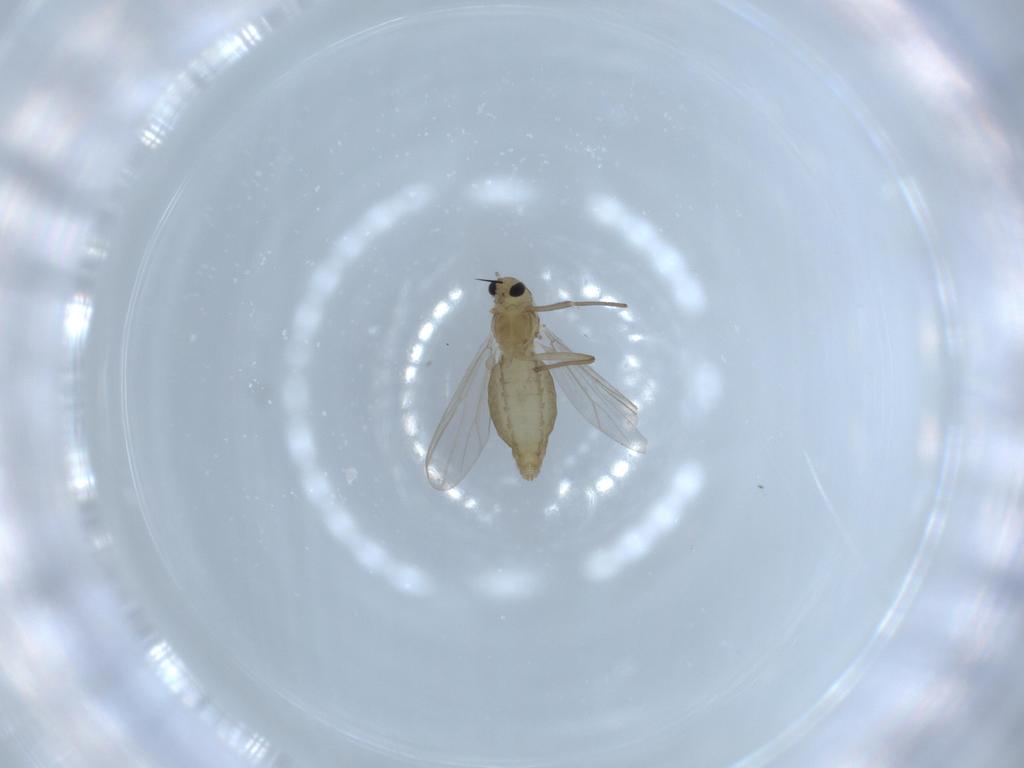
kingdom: Animalia
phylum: Arthropoda
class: Insecta
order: Diptera
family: Chironomidae
